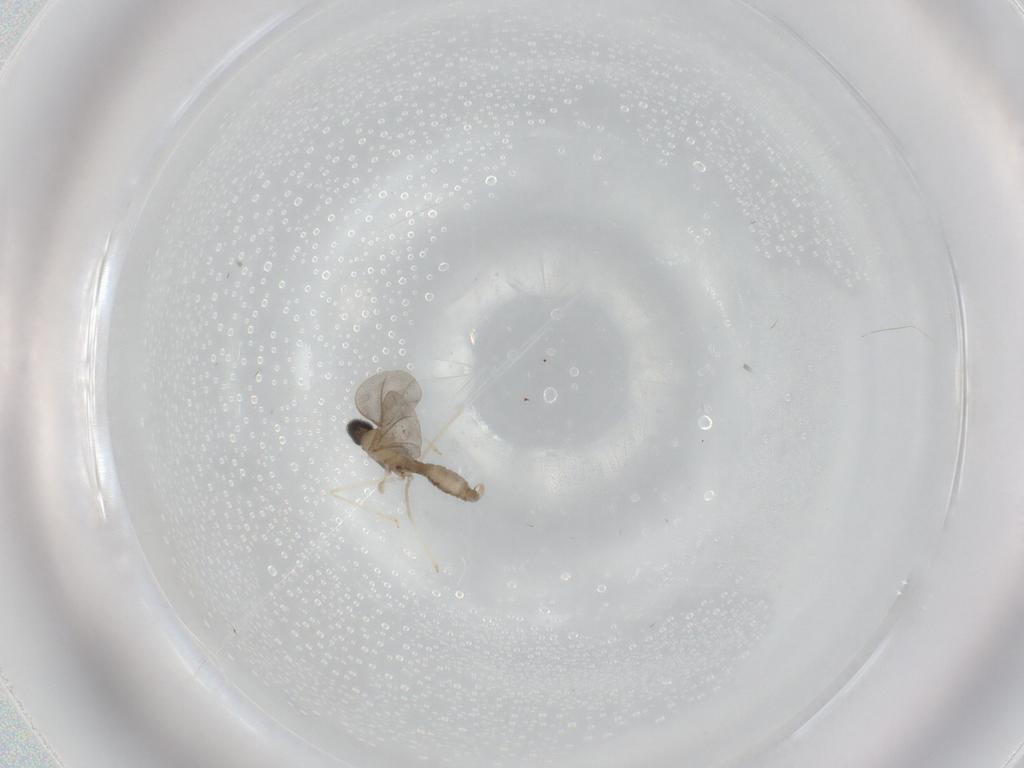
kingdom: Animalia
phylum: Arthropoda
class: Insecta
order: Diptera
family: Cecidomyiidae
